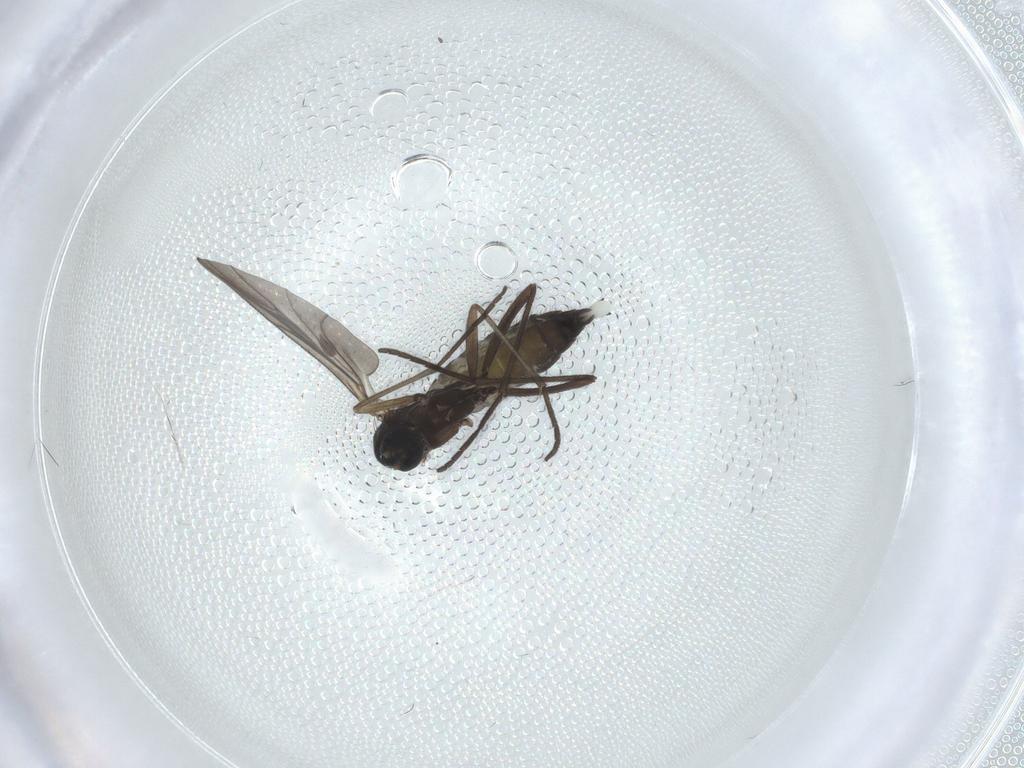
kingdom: Animalia
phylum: Arthropoda
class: Insecta
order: Diptera
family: Sciaridae
